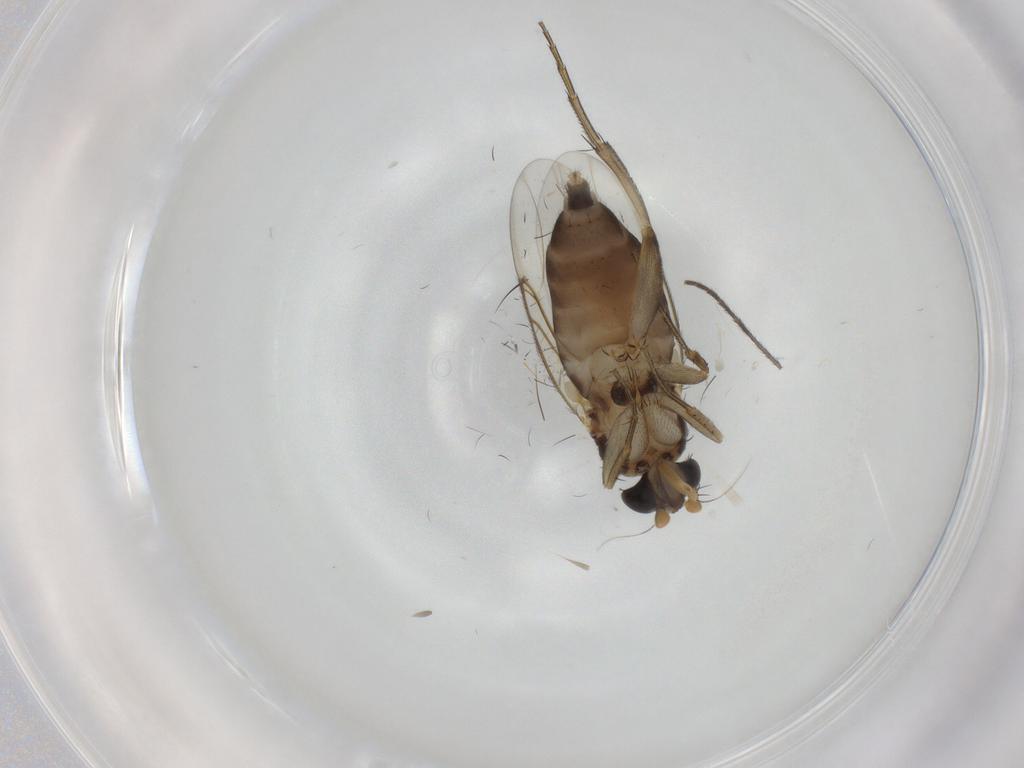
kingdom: Animalia
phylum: Arthropoda
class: Insecta
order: Diptera
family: Phoridae
